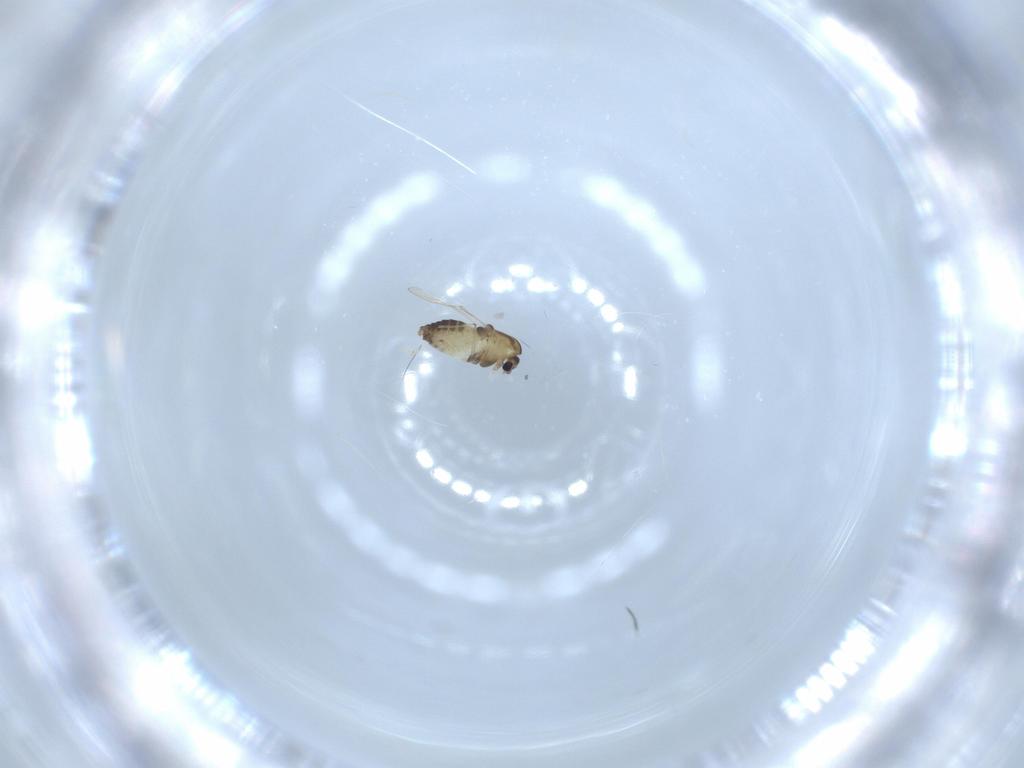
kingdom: Animalia
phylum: Arthropoda
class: Insecta
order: Diptera
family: Chironomidae
